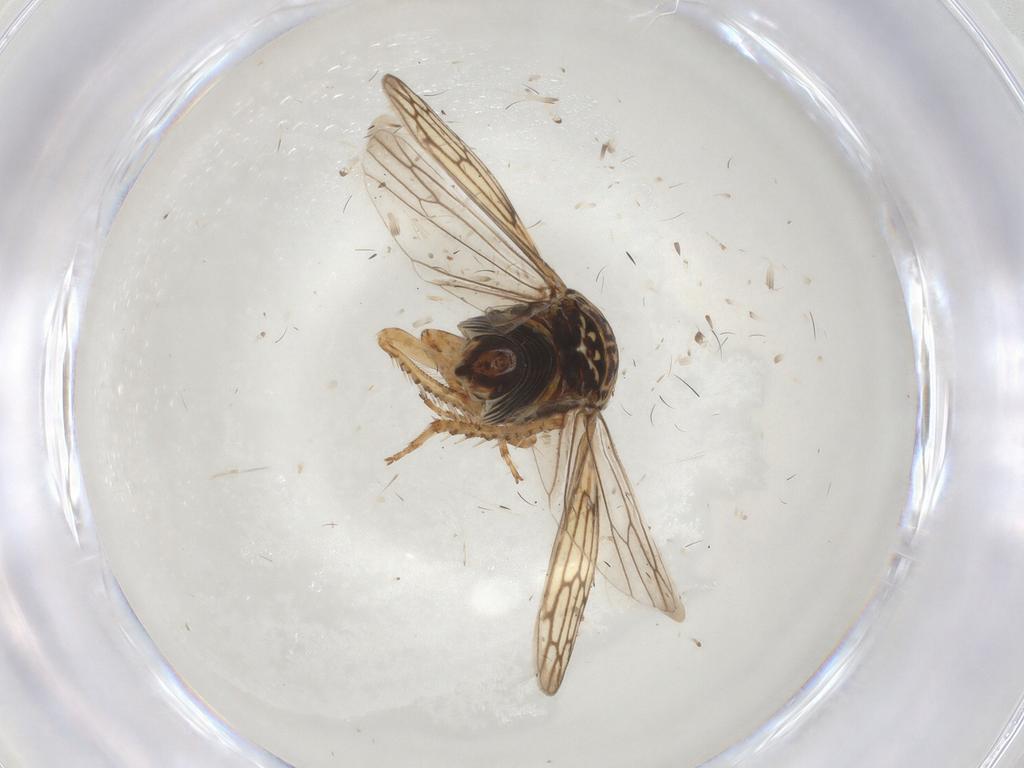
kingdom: Animalia
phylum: Arthropoda
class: Insecta
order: Hemiptera
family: Cicadellidae
